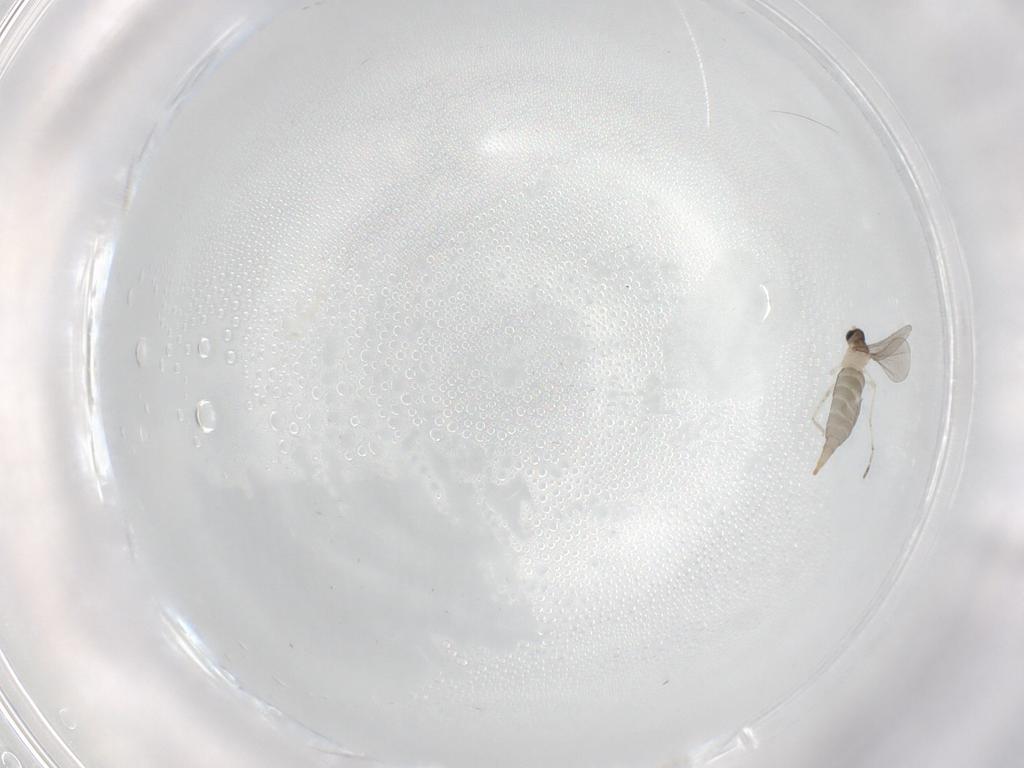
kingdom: Animalia
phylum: Arthropoda
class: Insecta
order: Diptera
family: Cecidomyiidae
